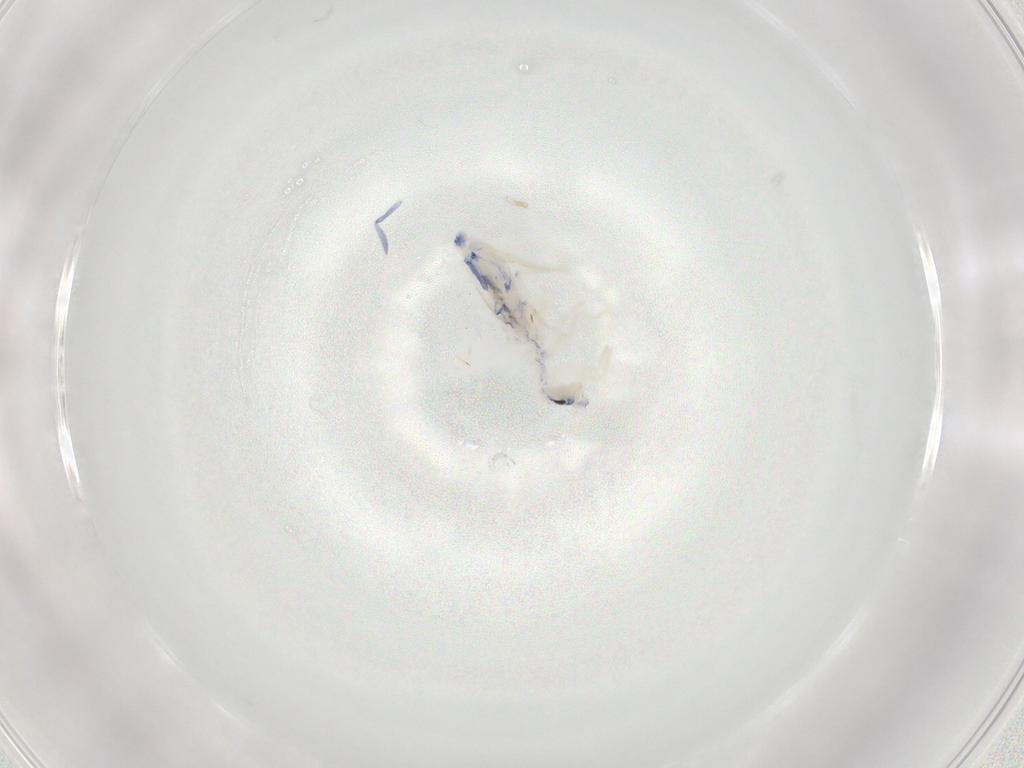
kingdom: Animalia
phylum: Arthropoda
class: Collembola
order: Entomobryomorpha
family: Entomobryidae
